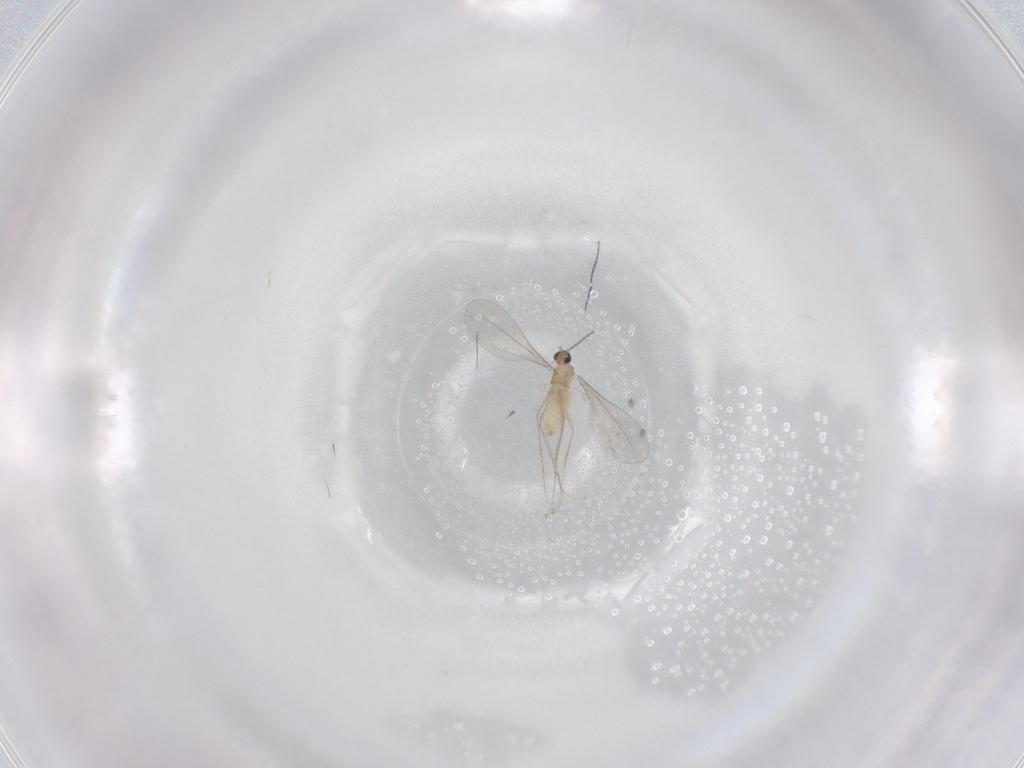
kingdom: Animalia
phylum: Arthropoda
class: Insecta
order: Diptera
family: Cecidomyiidae
